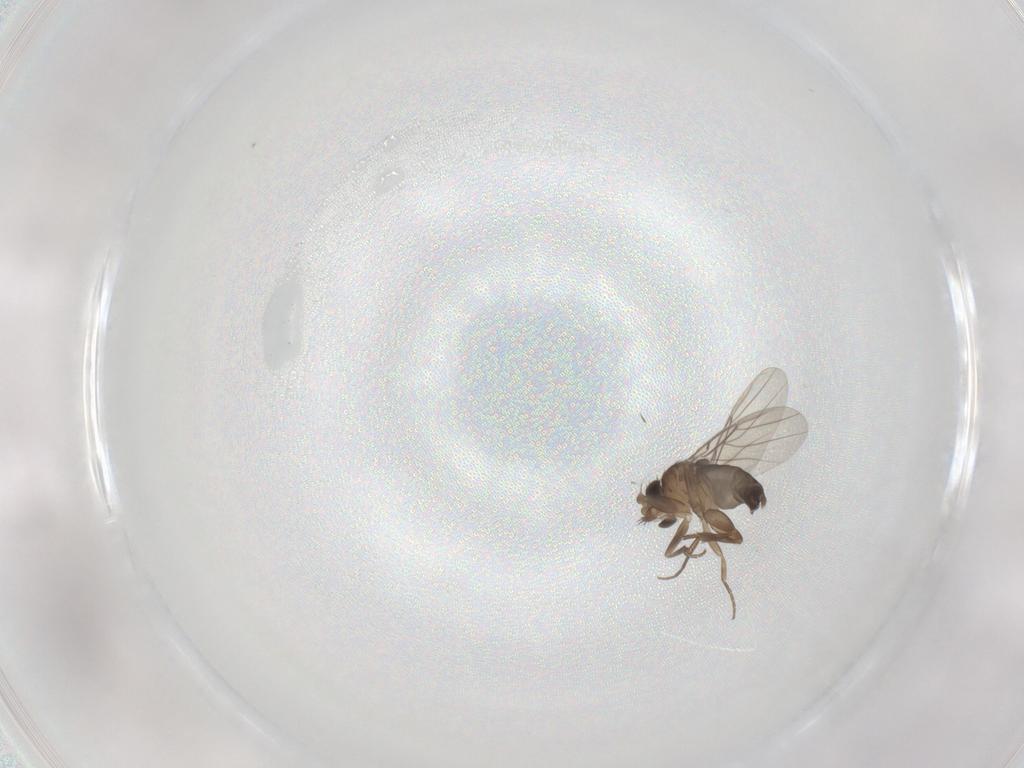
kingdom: Animalia
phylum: Arthropoda
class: Insecta
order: Diptera
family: Phoridae
